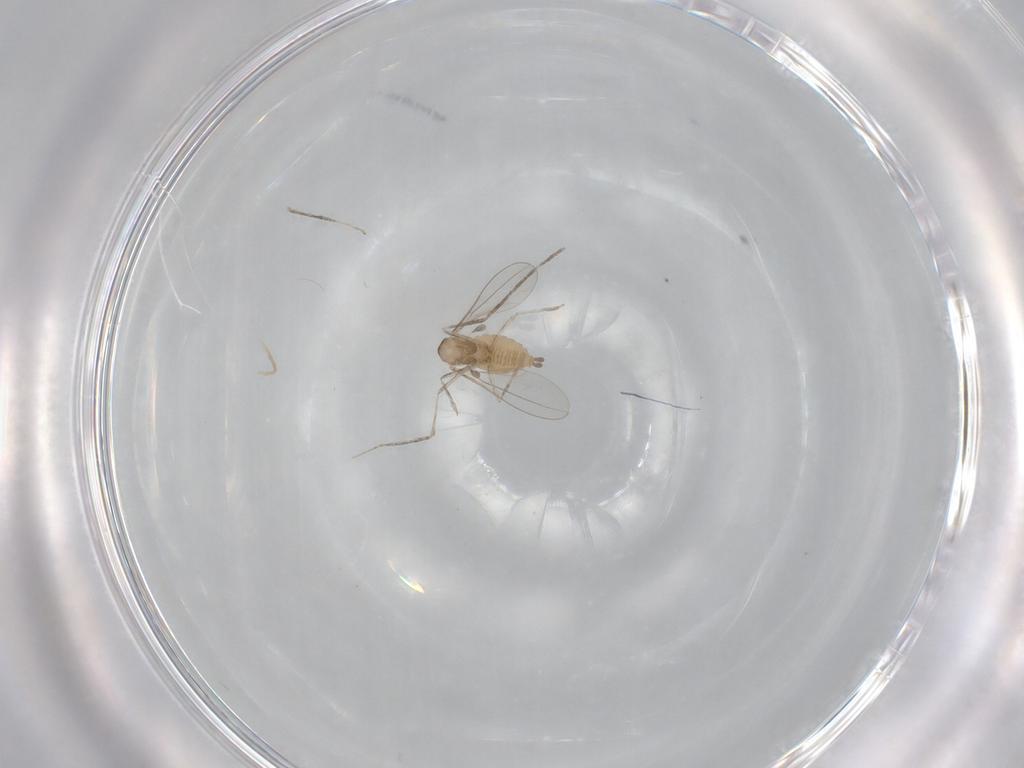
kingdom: Animalia
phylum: Arthropoda
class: Insecta
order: Diptera
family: Cecidomyiidae
